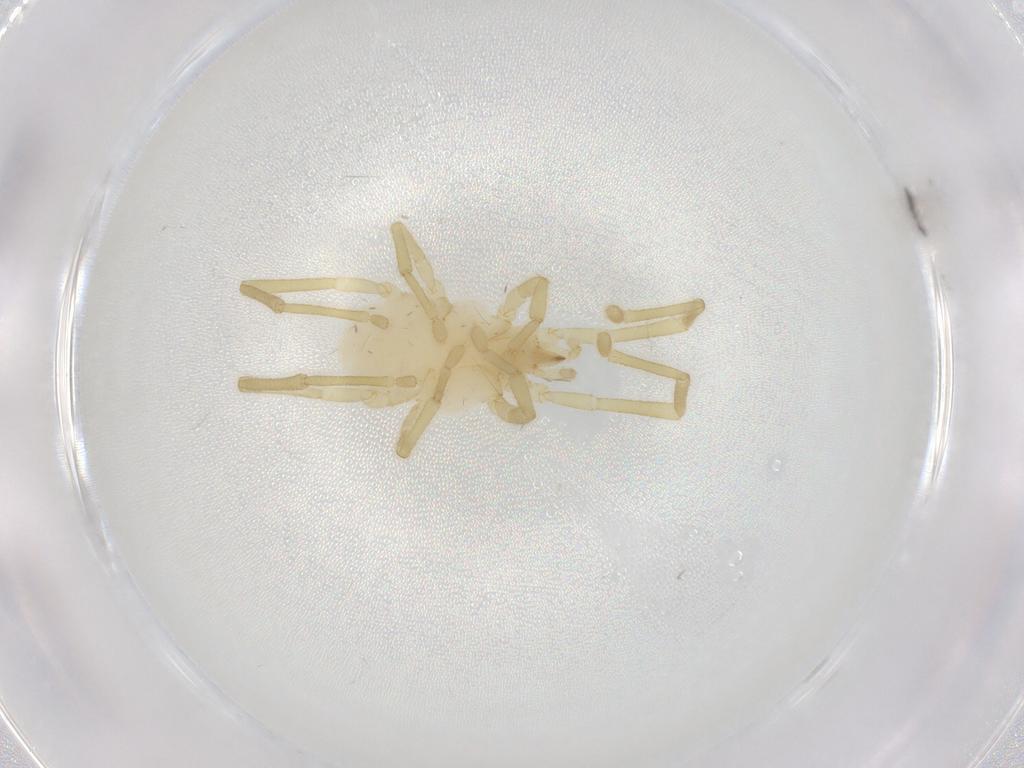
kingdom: Animalia
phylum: Arthropoda
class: Arachnida
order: Trombidiformes
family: Erythraeidae
